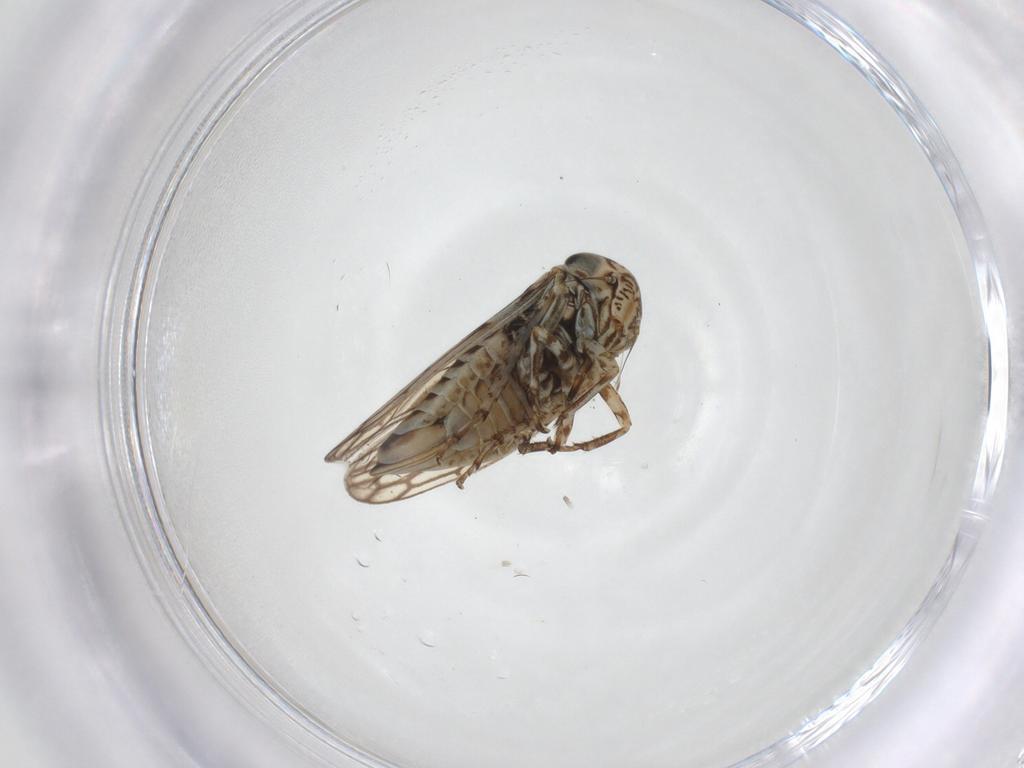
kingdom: Animalia
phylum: Arthropoda
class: Insecta
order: Hemiptera
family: Cicadellidae
